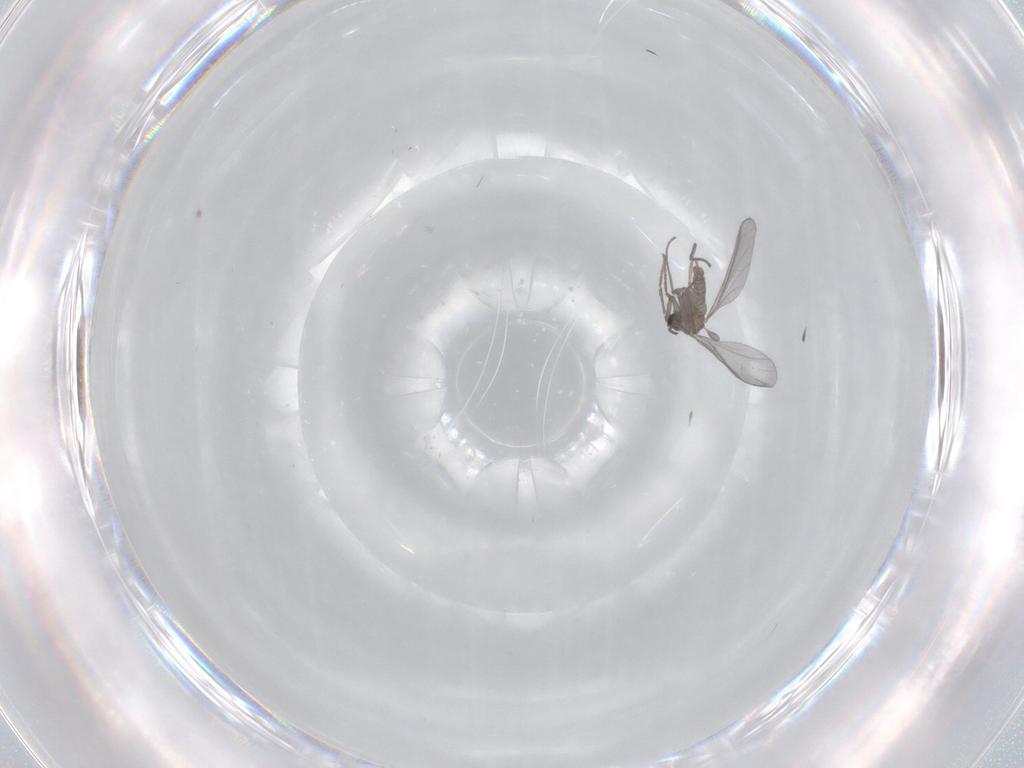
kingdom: Animalia
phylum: Arthropoda
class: Insecta
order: Diptera
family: Sciaridae
